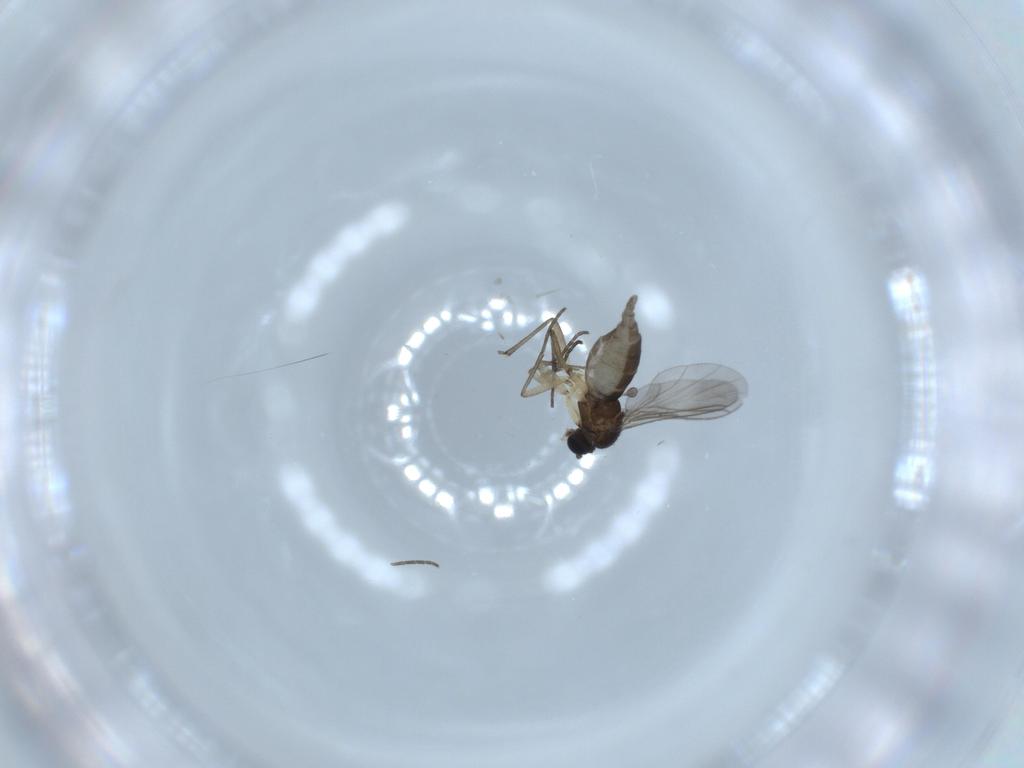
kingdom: Animalia
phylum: Arthropoda
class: Insecta
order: Diptera
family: Sciaridae
